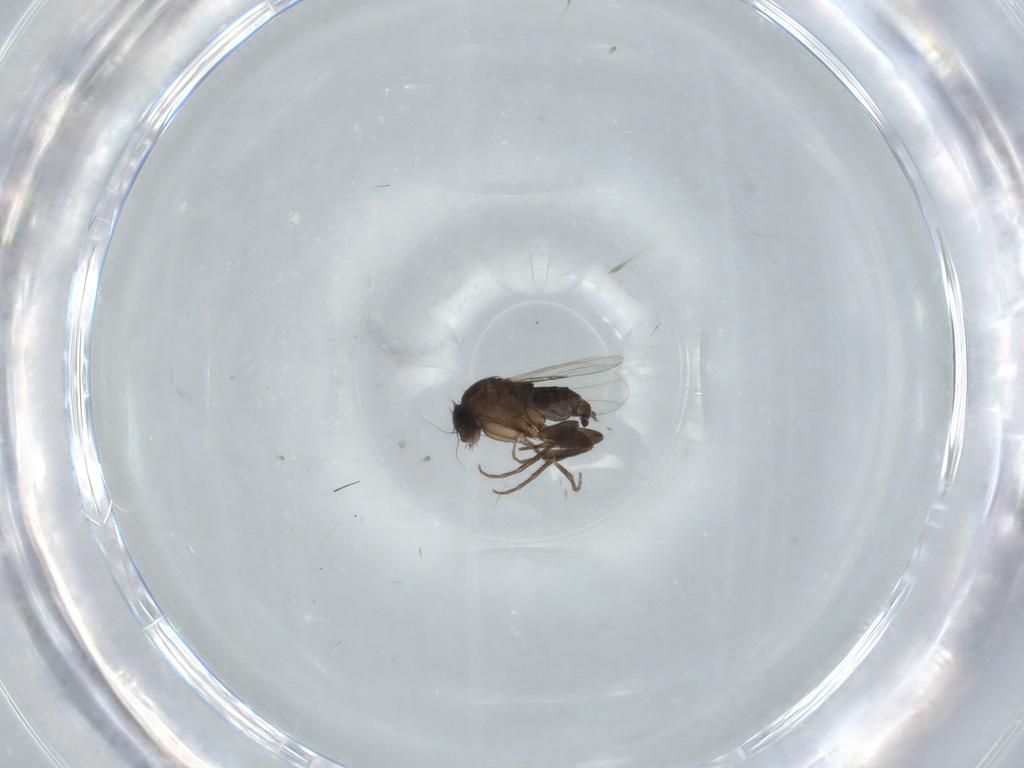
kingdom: Animalia
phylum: Arthropoda
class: Insecta
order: Diptera
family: Phoridae
